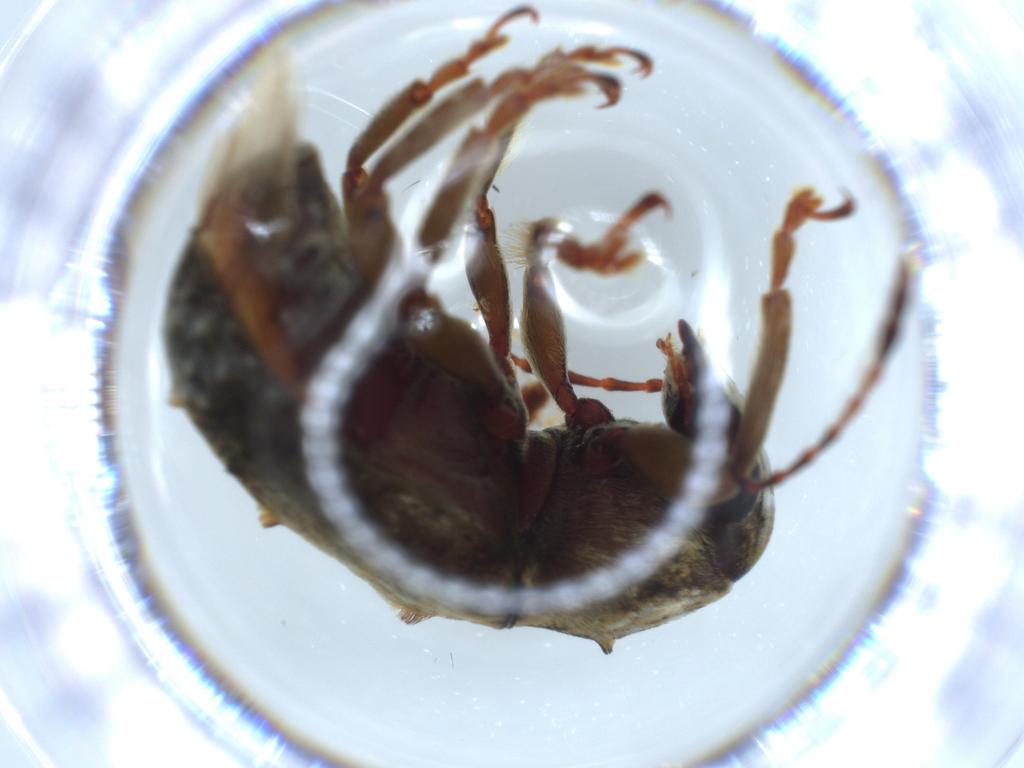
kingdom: Animalia
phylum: Arthropoda
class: Insecta
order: Coleoptera
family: Anthribidae
